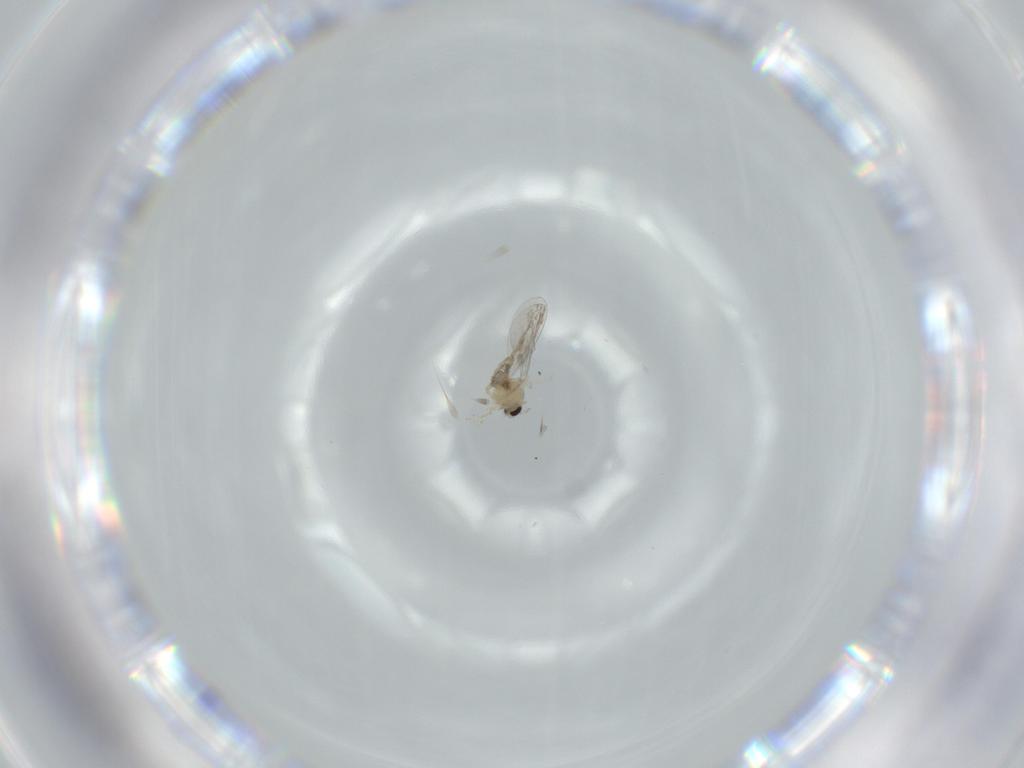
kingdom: Animalia
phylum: Arthropoda
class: Insecta
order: Diptera
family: Cecidomyiidae
